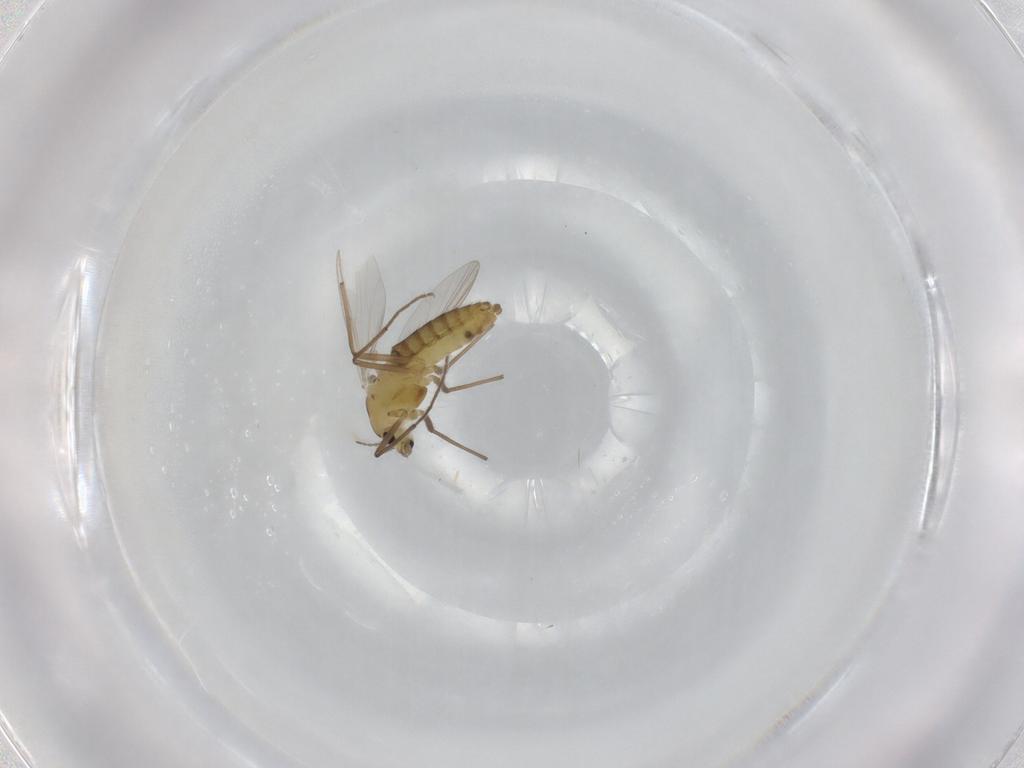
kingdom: Animalia
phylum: Arthropoda
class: Insecta
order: Diptera
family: Chironomidae
